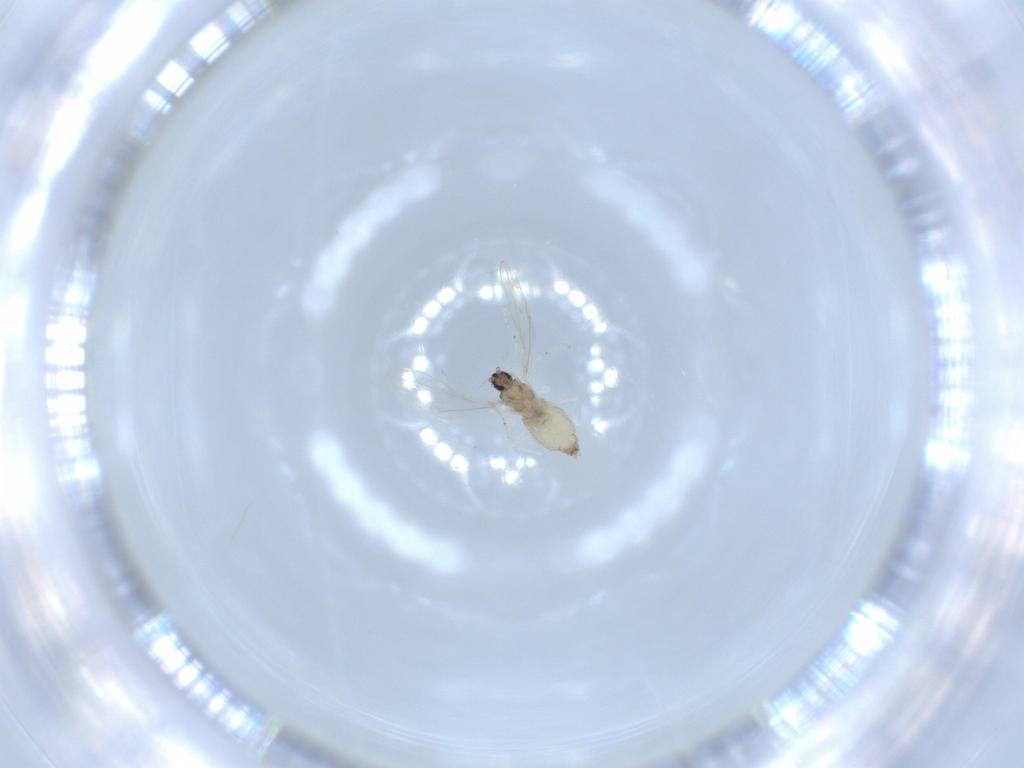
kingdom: Animalia
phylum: Arthropoda
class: Insecta
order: Diptera
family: Cecidomyiidae
